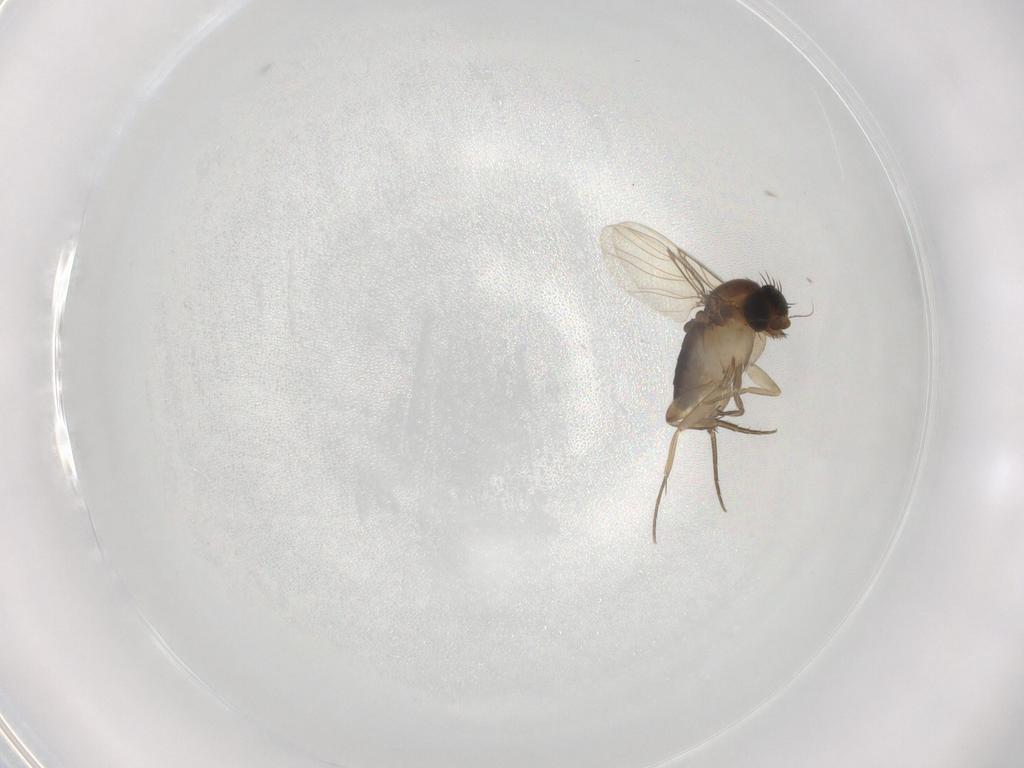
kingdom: Animalia
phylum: Arthropoda
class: Insecta
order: Diptera
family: Phoridae
